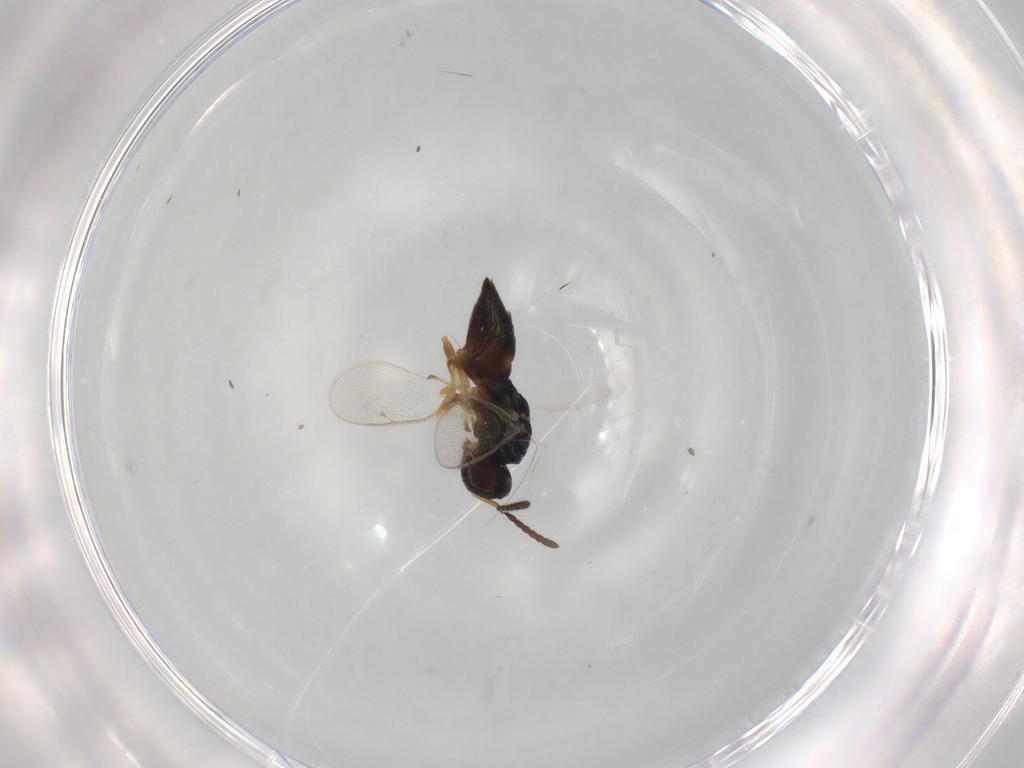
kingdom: Animalia
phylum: Arthropoda
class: Insecta
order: Hymenoptera
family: Pteromalidae
